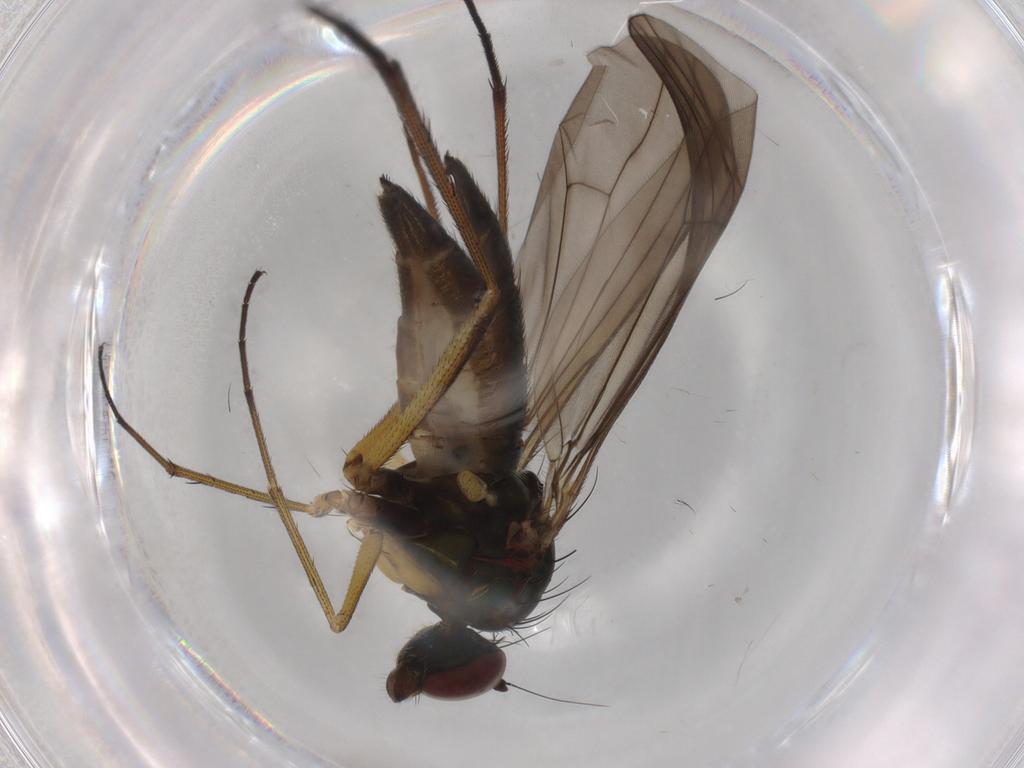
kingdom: Animalia
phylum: Arthropoda
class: Insecta
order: Diptera
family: Dolichopodidae
